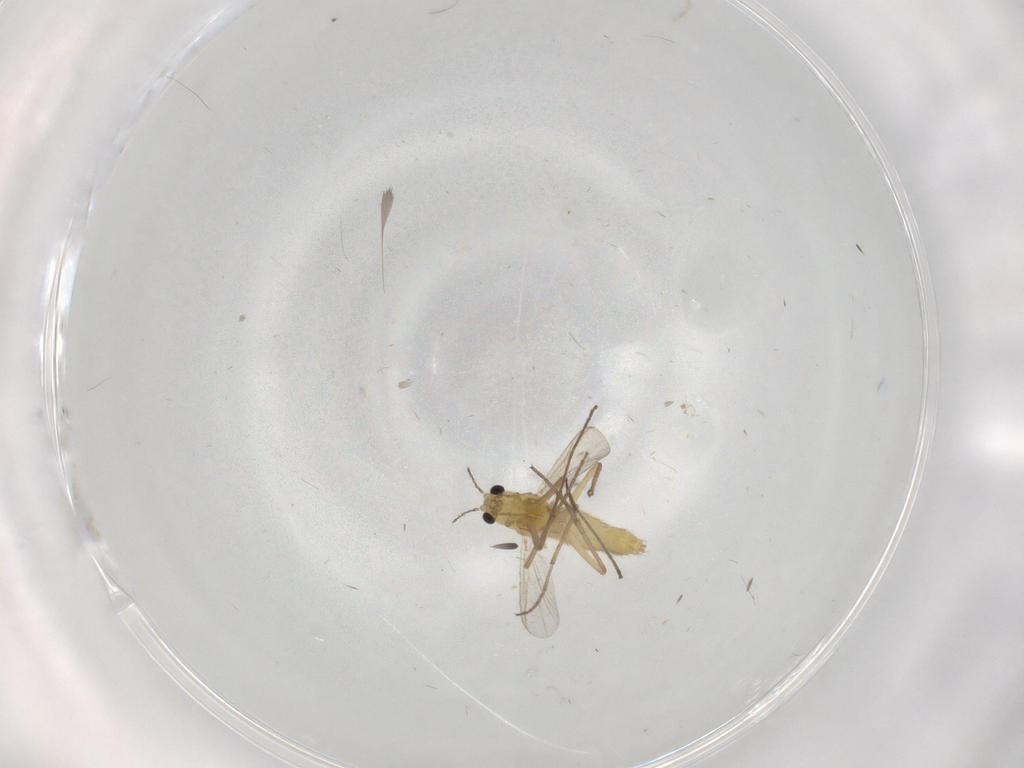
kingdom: Animalia
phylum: Arthropoda
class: Insecta
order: Diptera
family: Chironomidae
